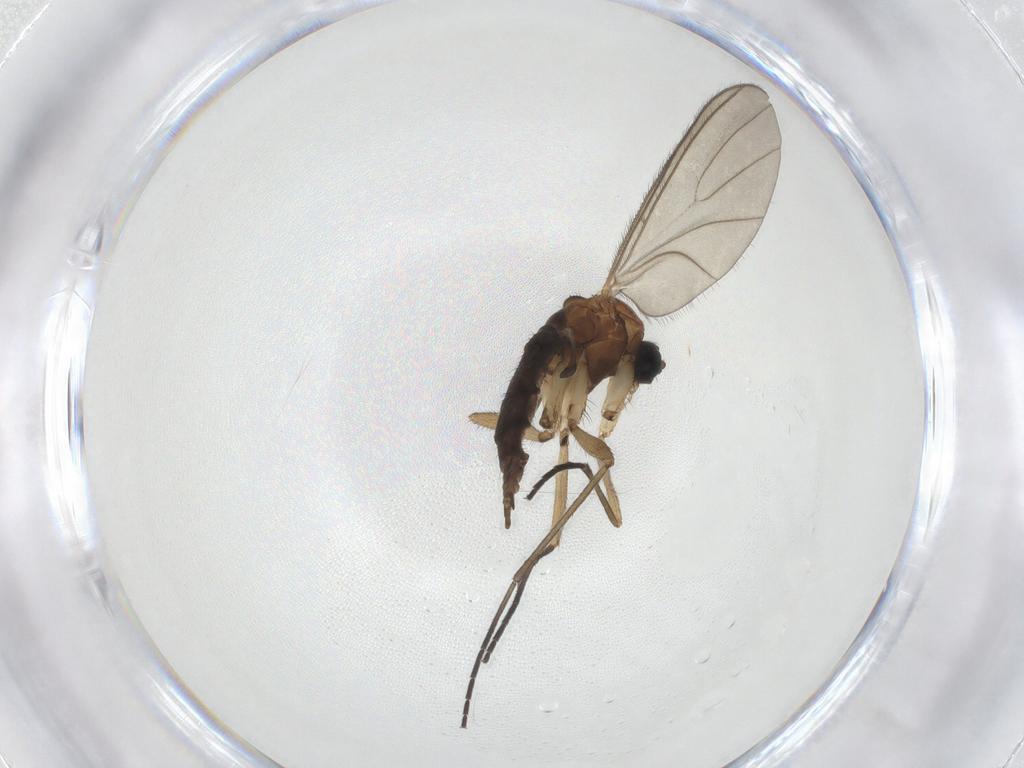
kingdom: Animalia
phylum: Arthropoda
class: Insecta
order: Diptera
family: Sciaridae
